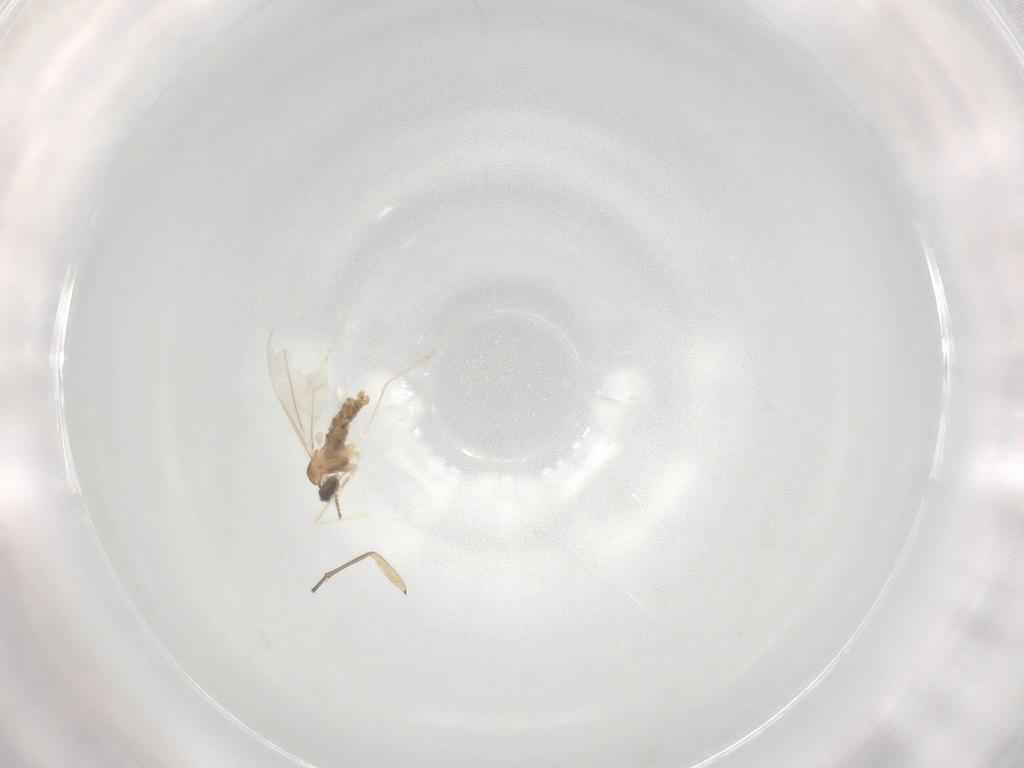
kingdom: Animalia
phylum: Arthropoda
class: Insecta
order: Diptera
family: Cecidomyiidae
